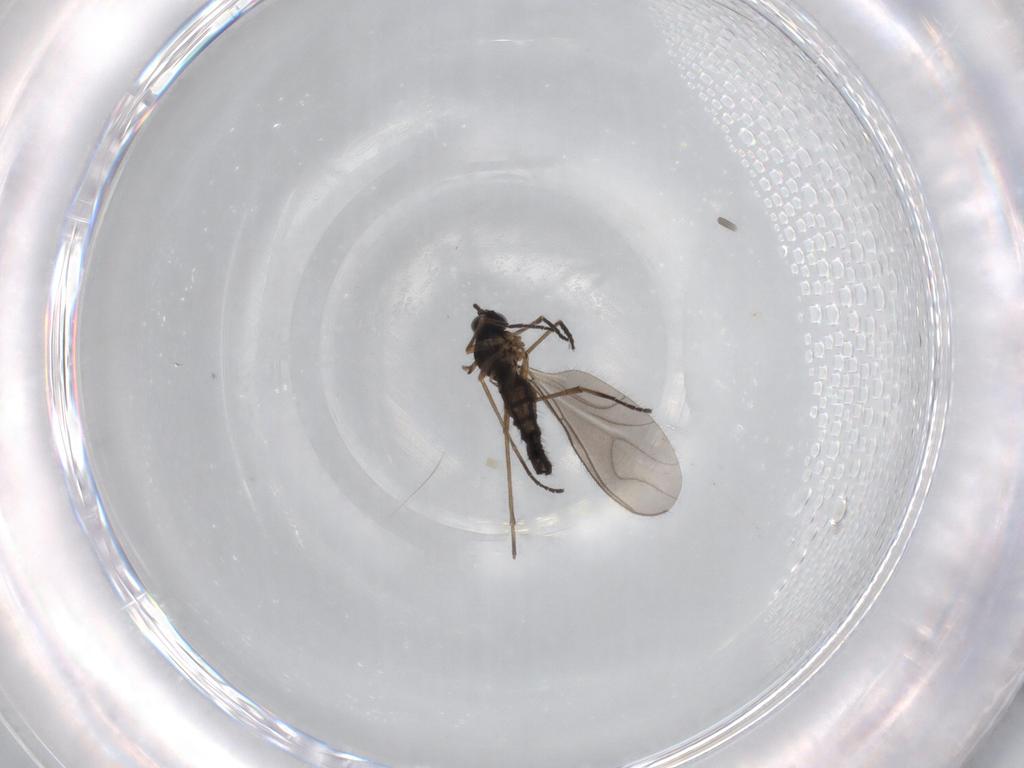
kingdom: Animalia
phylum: Arthropoda
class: Insecta
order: Diptera
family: Sciaridae
